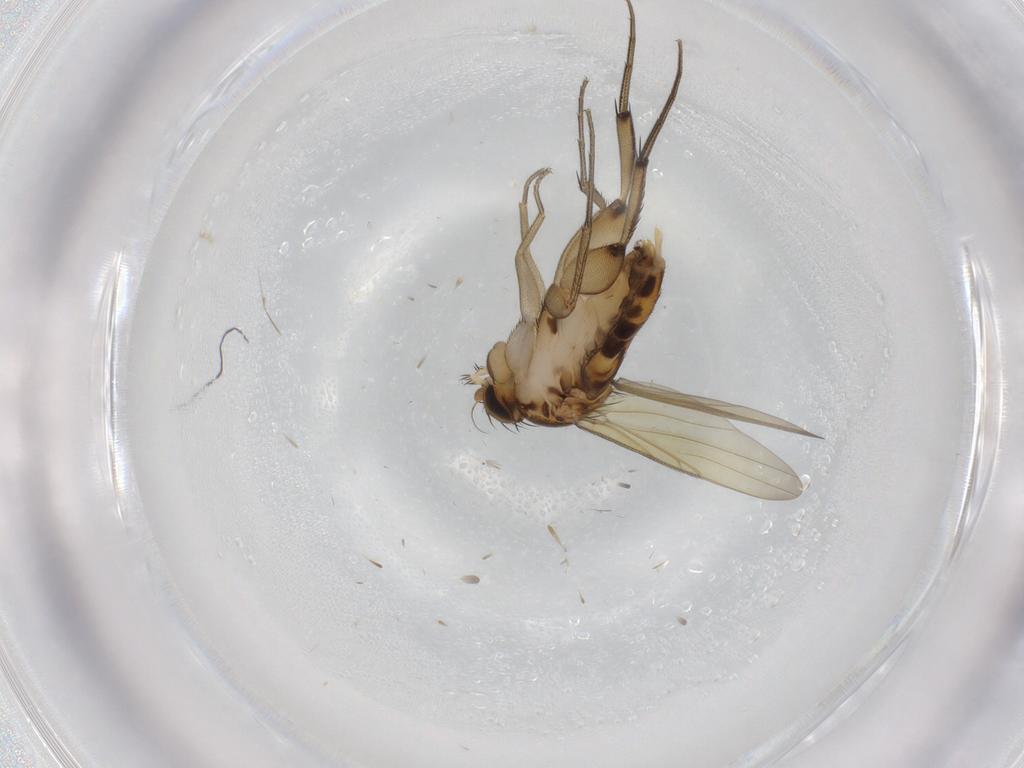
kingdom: Animalia
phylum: Arthropoda
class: Insecta
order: Diptera
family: Phoridae
